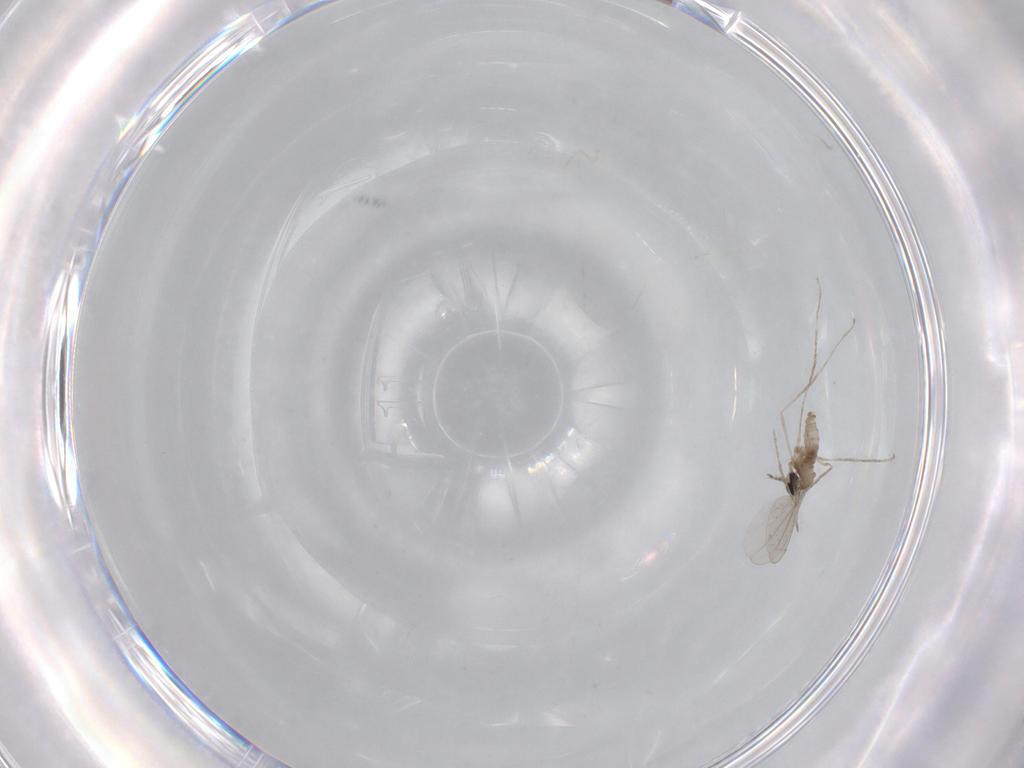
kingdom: Animalia
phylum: Arthropoda
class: Insecta
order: Diptera
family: Cecidomyiidae
